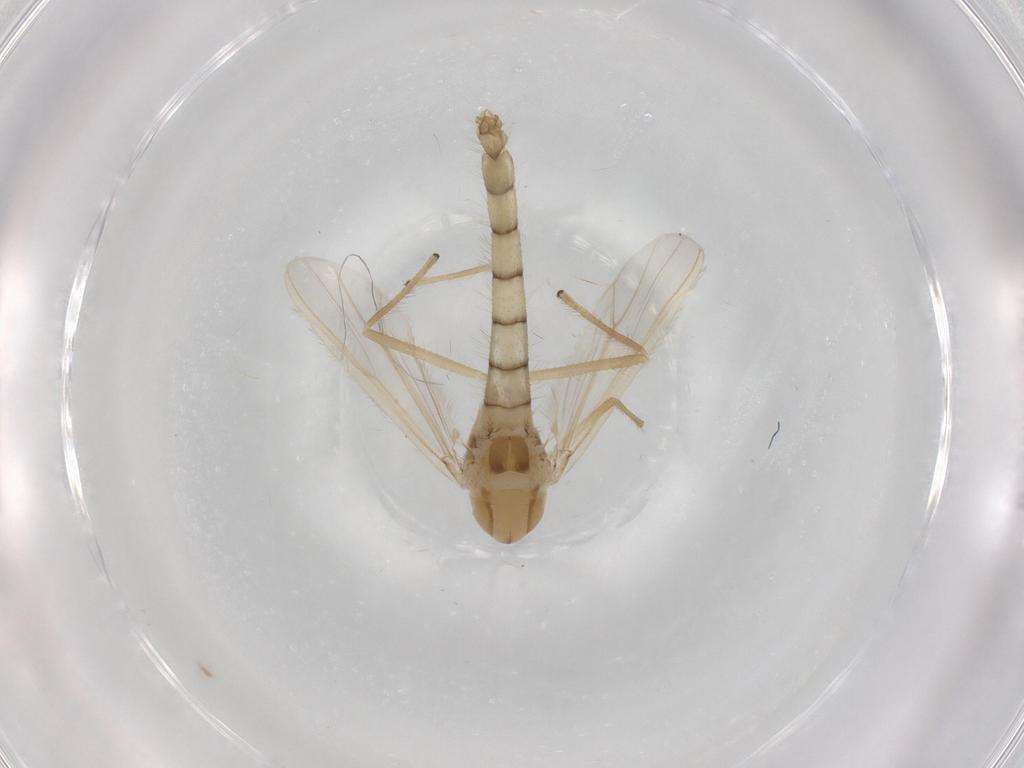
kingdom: Animalia
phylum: Arthropoda
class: Insecta
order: Diptera
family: Chironomidae
